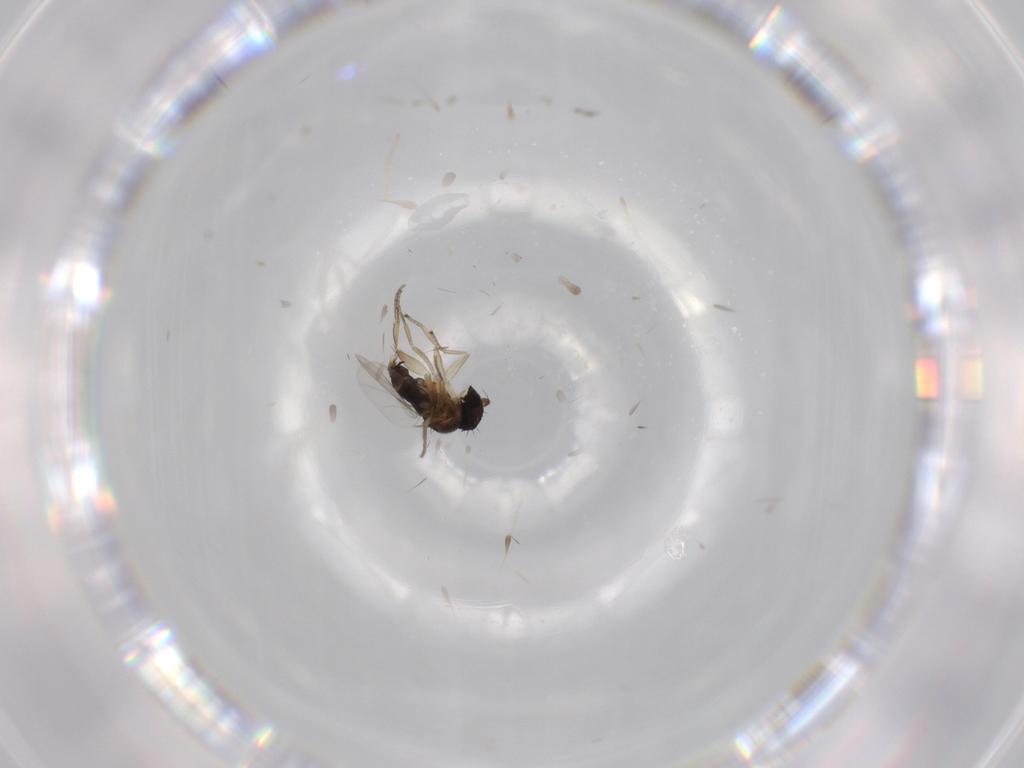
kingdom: Animalia
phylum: Arthropoda
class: Insecta
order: Diptera
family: Phoridae
